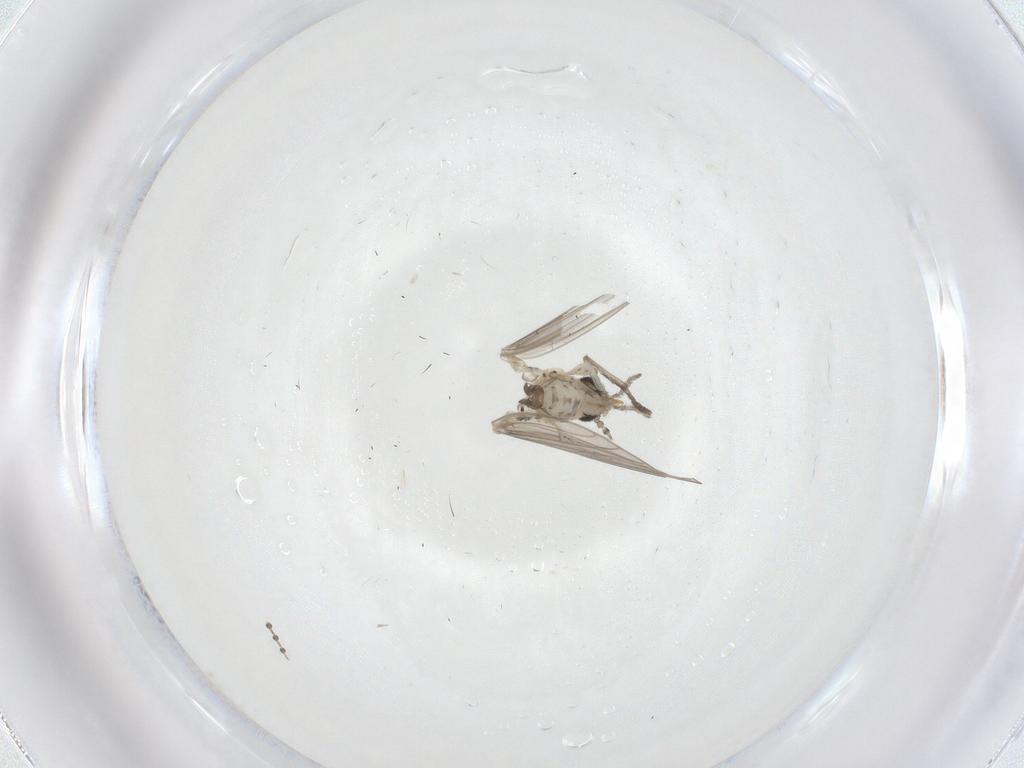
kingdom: Animalia
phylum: Arthropoda
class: Insecta
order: Diptera
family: Psychodidae
